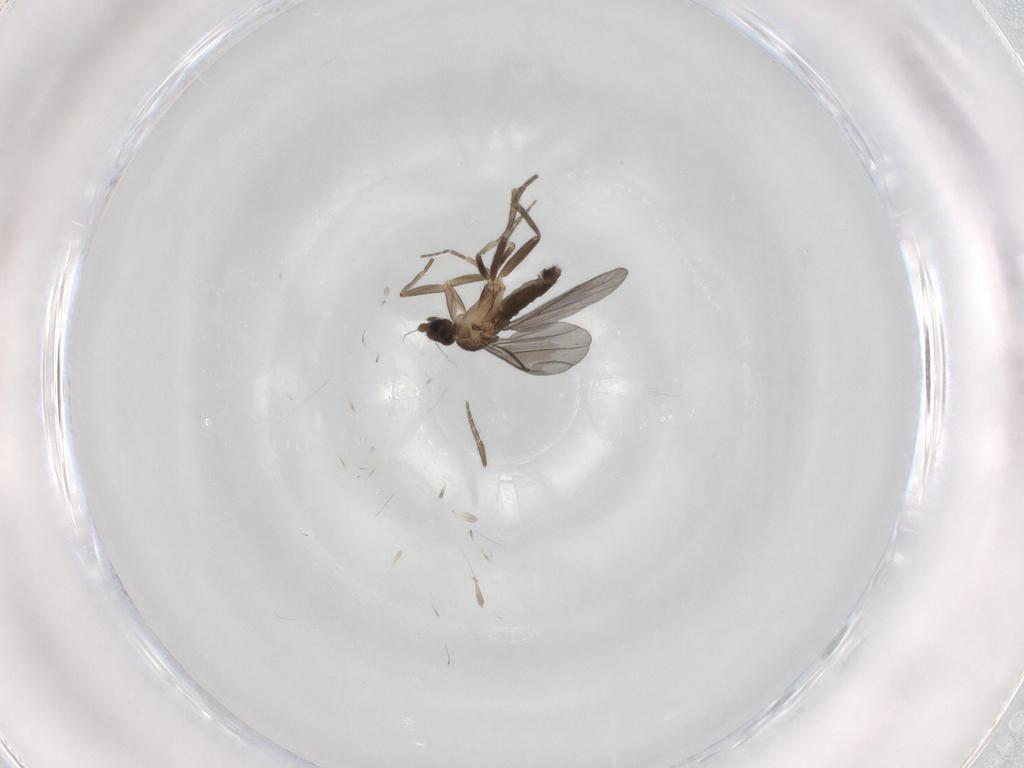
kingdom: Animalia
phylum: Arthropoda
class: Insecta
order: Diptera
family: Phoridae
